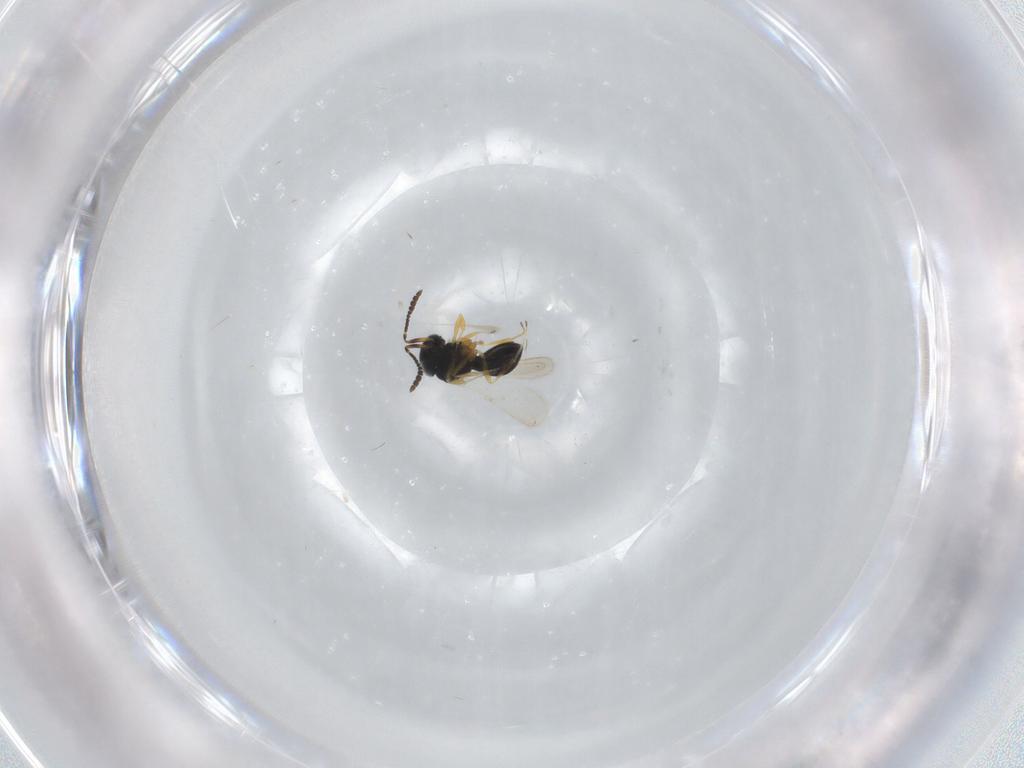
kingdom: Animalia
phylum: Arthropoda
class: Insecta
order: Hymenoptera
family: Scelionidae
